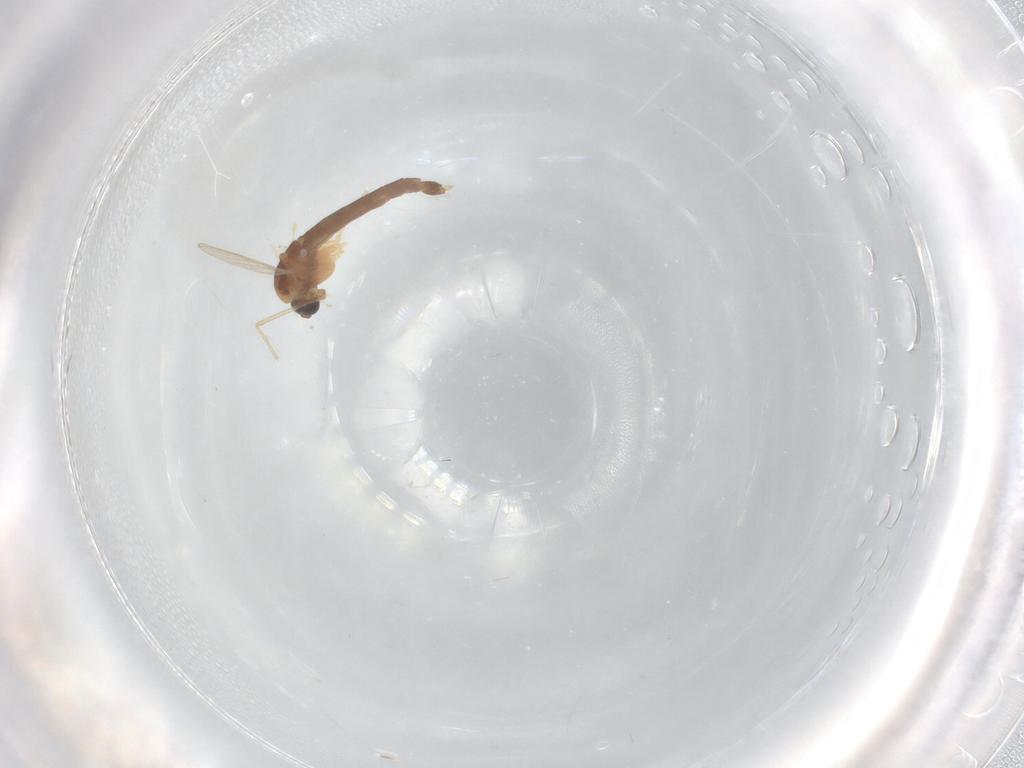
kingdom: Animalia
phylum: Arthropoda
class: Insecta
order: Diptera
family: Chironomidae
